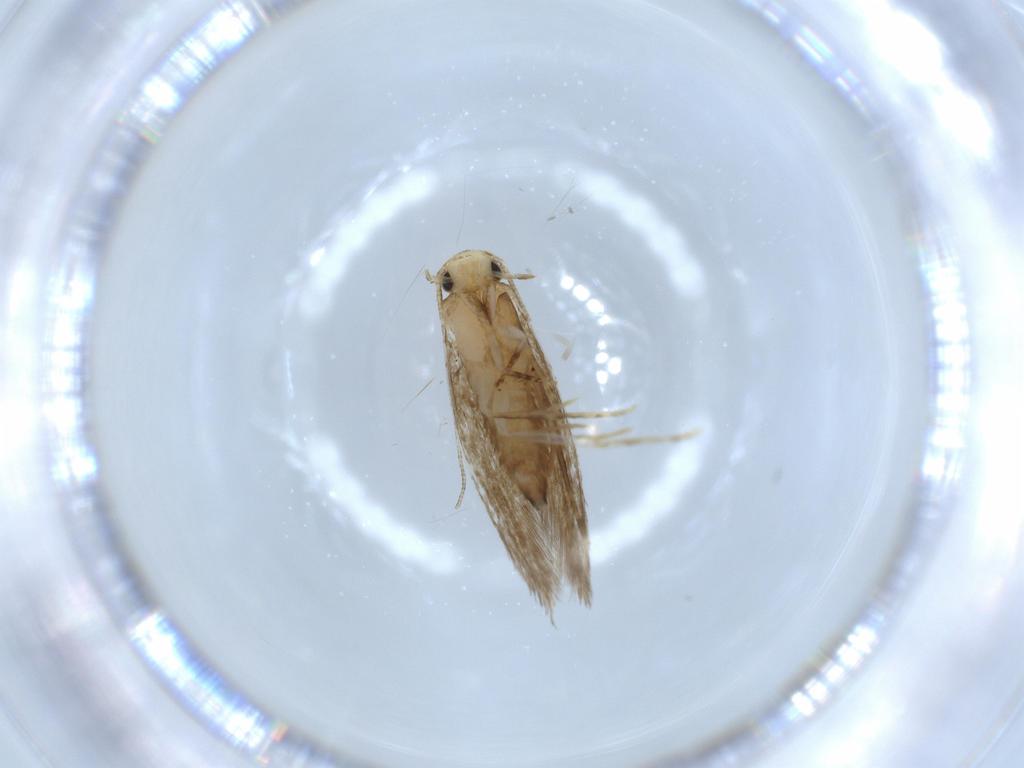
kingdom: Animalia
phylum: Arthropoda
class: Insecta
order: Lepidoptera
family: Tineidae
